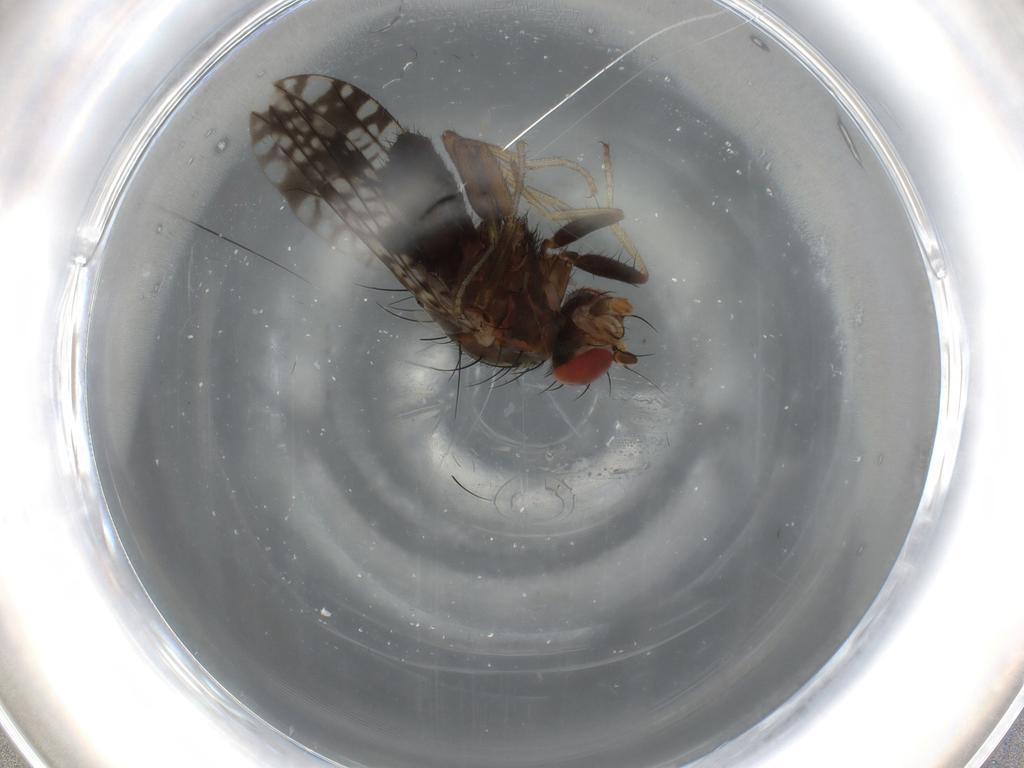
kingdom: Animalia
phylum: Arthropoda
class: Insecta
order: Diptera
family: Tephritidae
